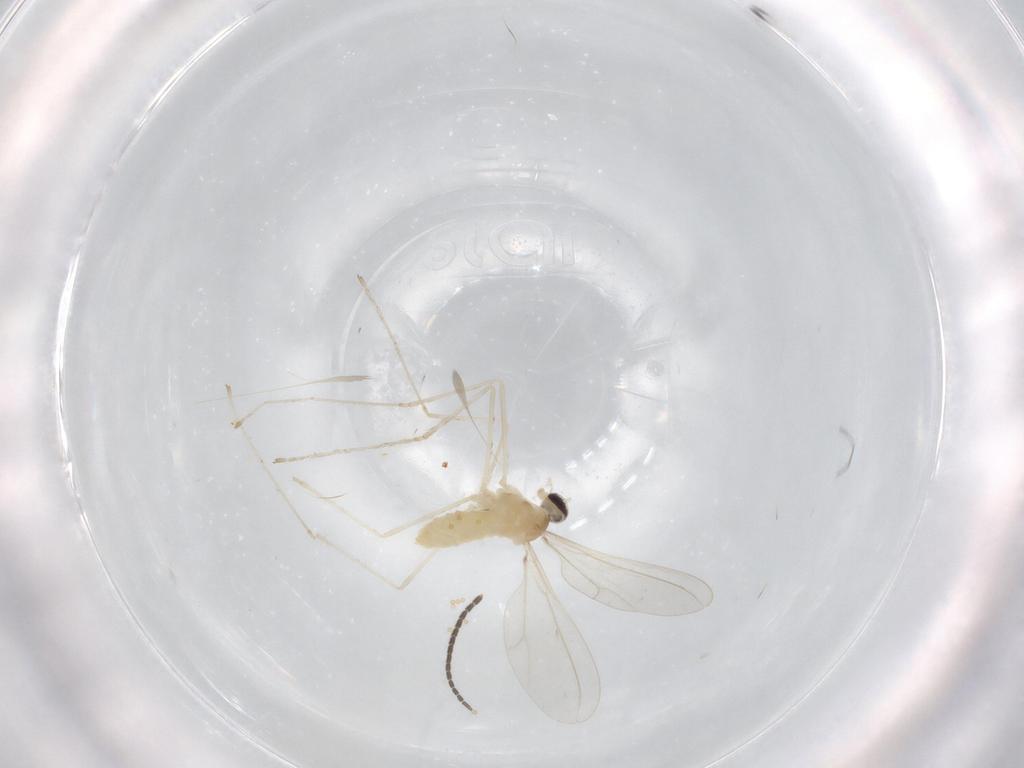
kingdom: Animalia
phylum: Arthropoda
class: Insecta
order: Diptera
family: Cecidomyiidae
